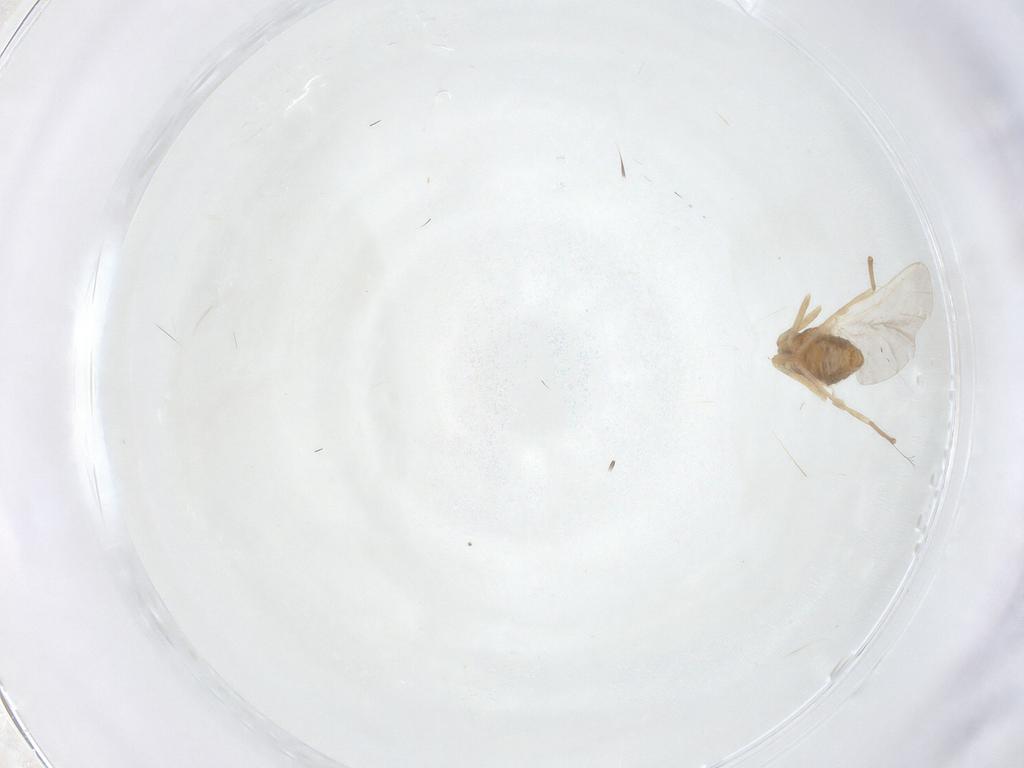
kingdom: Animalia
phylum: Arthropoda
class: Insecta
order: Diptera
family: Cecidomyiidae
